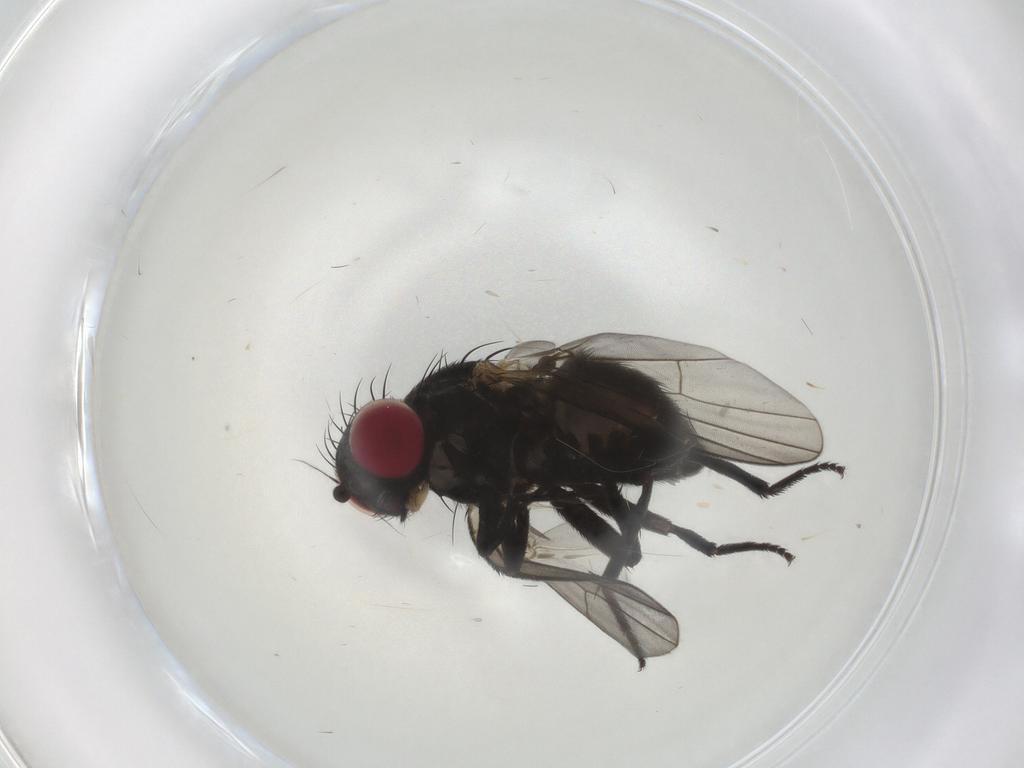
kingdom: Animalia
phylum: Arthropoda
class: Insecta
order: Diptera
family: Agromyzidae
